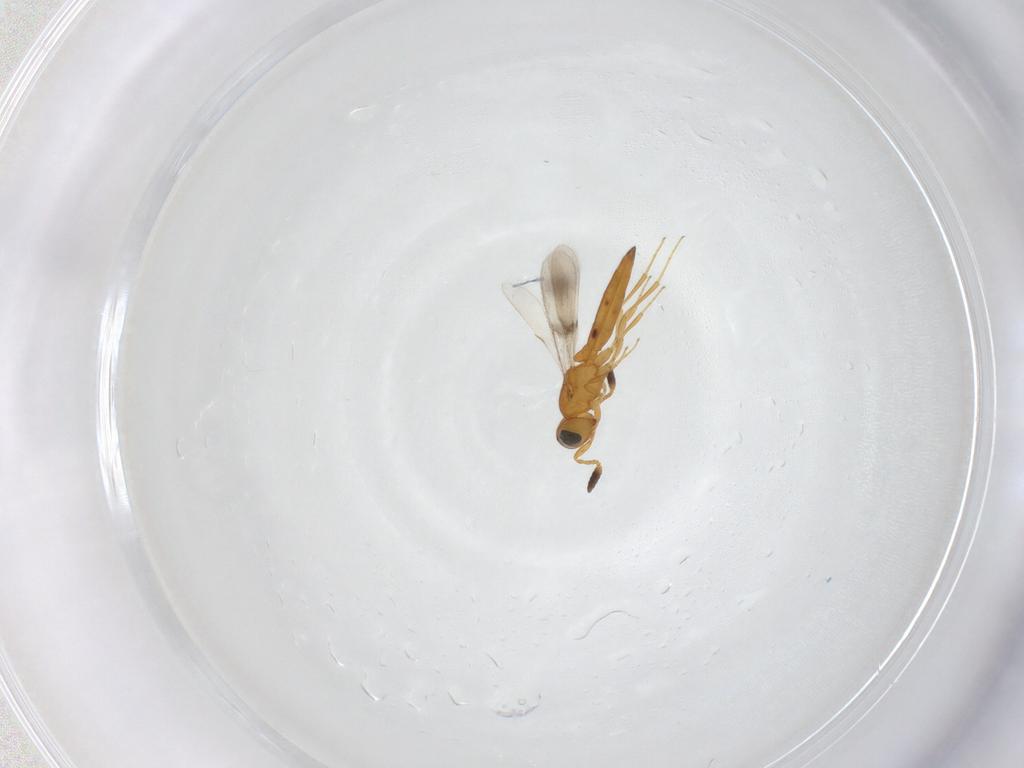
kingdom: Animalia
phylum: Arthropoda
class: Insecta
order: Hymenoptera
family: Scelionidae
